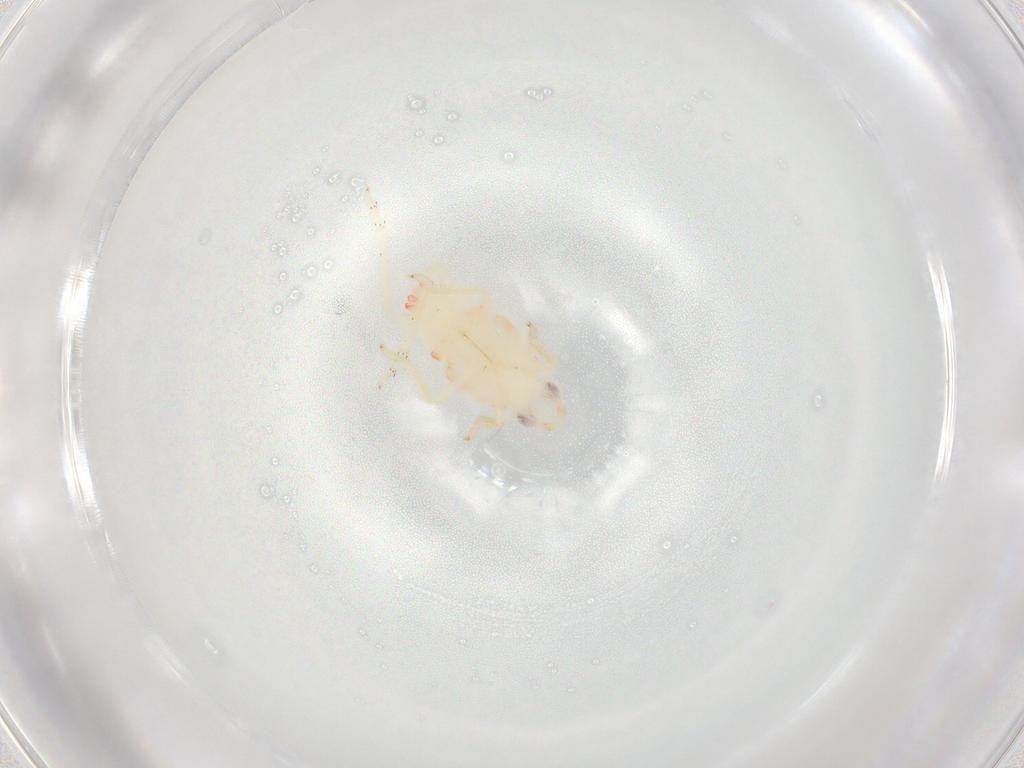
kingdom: Animalia
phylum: Arthropoda
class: Insecta
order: Hemiptera
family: Tropiduchidae
